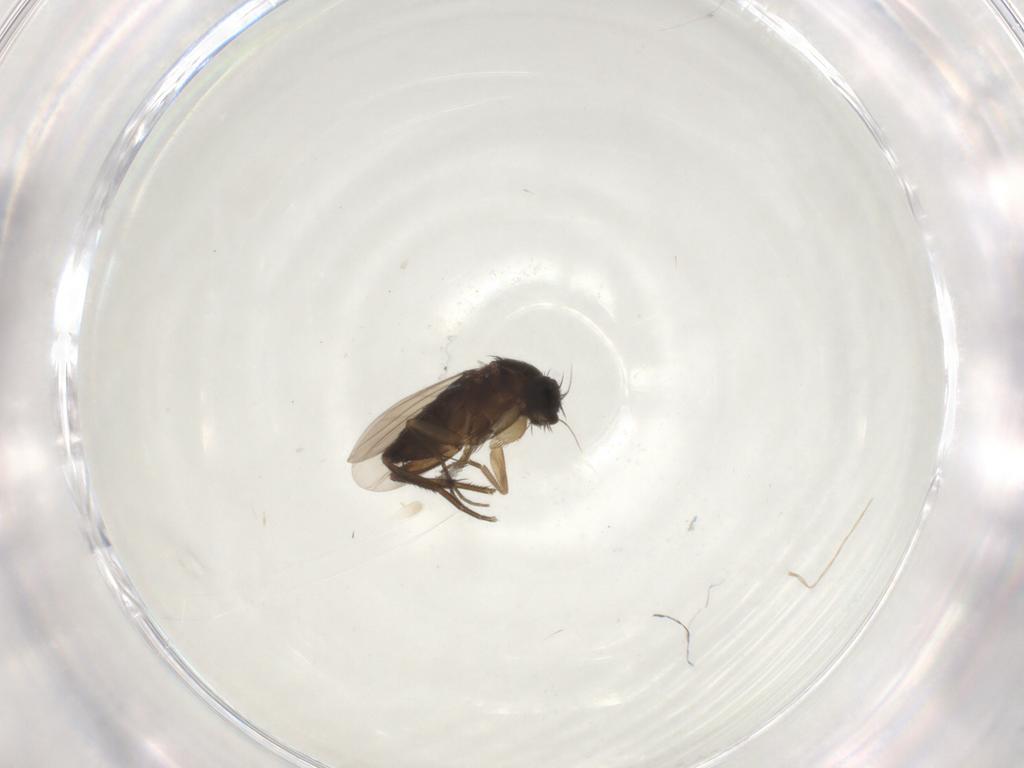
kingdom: Animalia
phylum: Arthropoda
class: Insecta
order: Diptera
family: Phoridae
